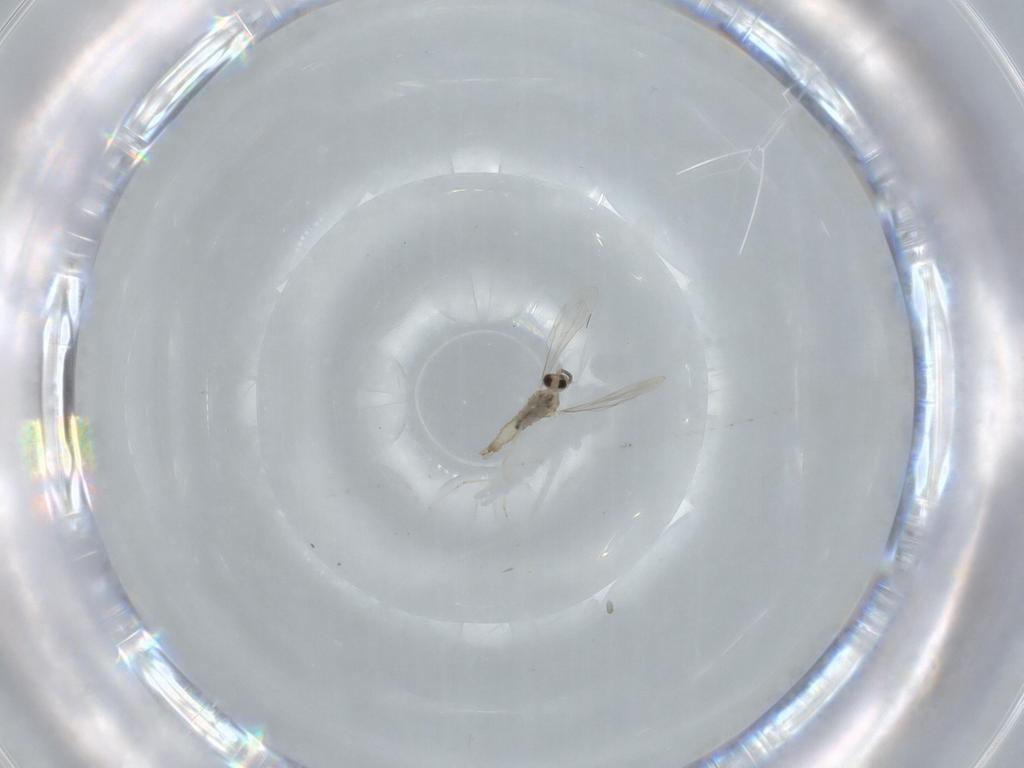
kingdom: Animalia
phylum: Arthropoda
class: Insecta
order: Diptera
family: Cecidomyiidae
